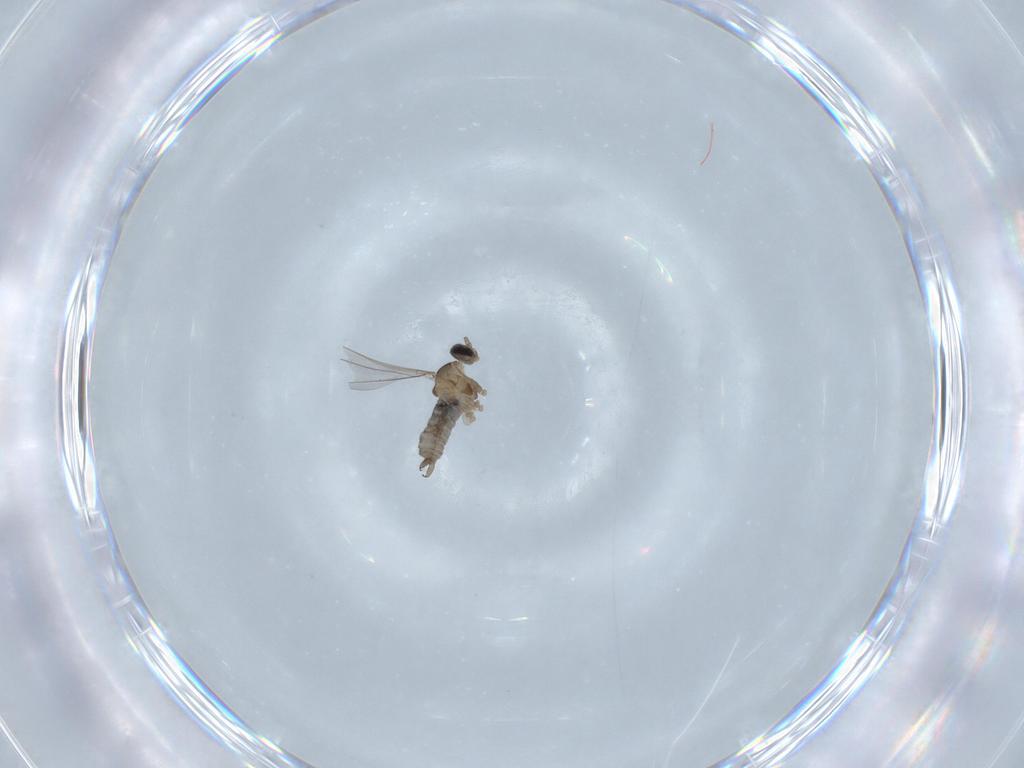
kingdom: Animalia
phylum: Arthropoda
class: Insecta
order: Diptera
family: Cecidomyiidae
